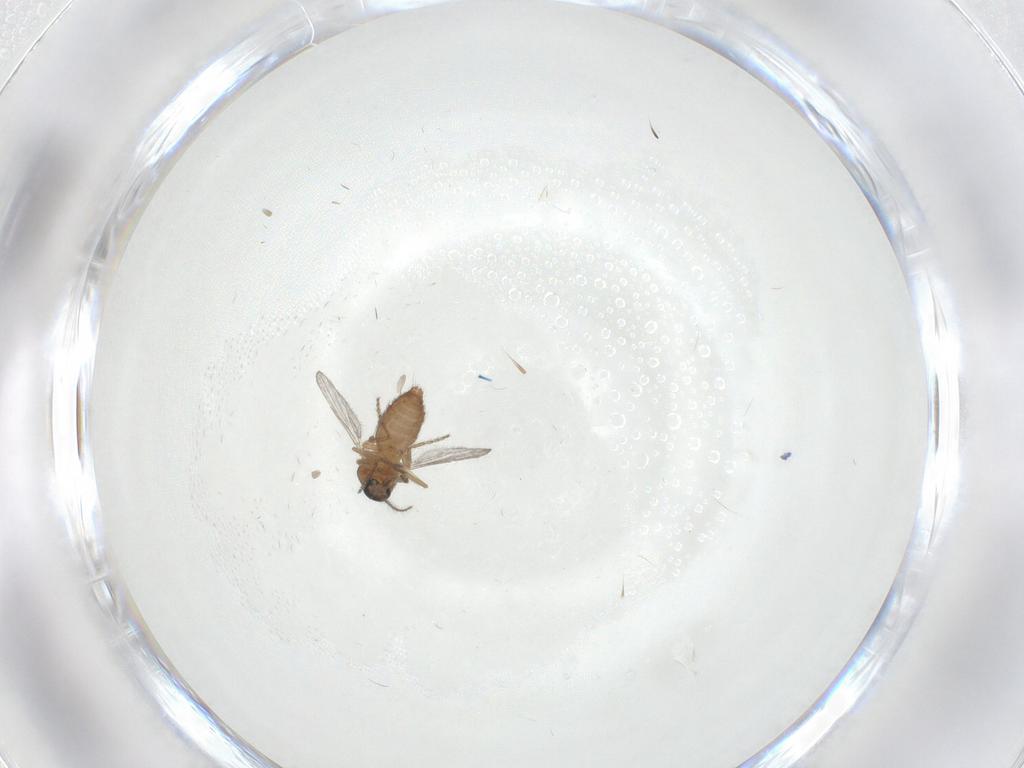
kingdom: Animalia
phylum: Arthropoda
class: Insecta
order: Diptera
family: Ceratopogonidae
